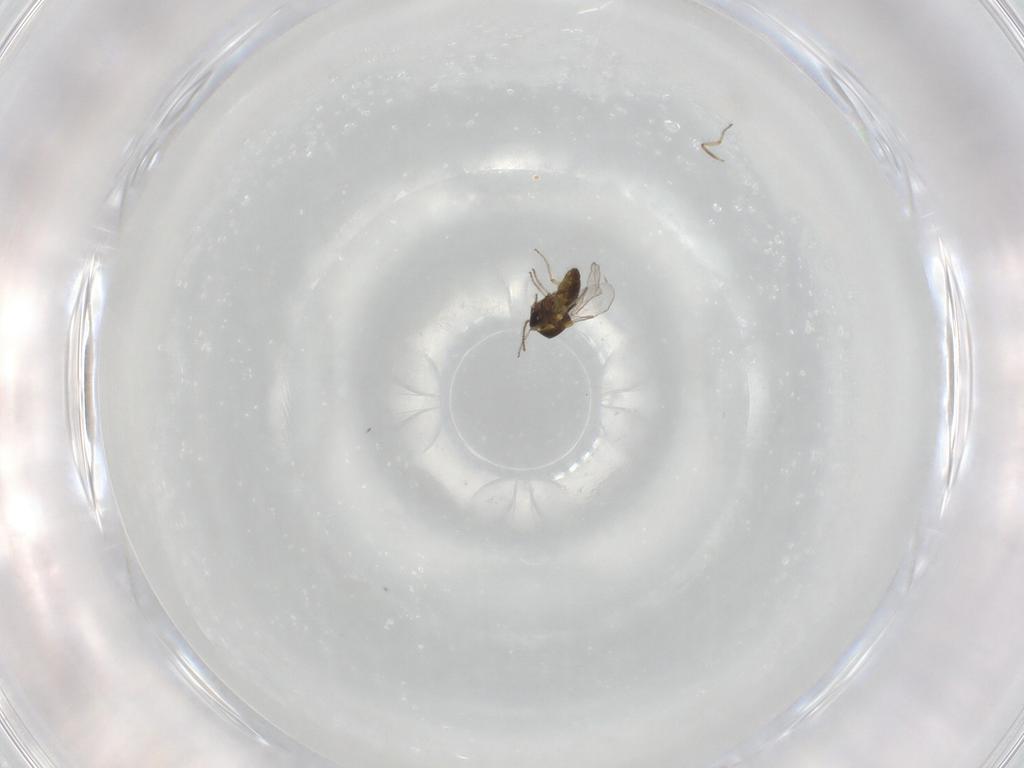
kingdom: Animalia
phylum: Arthropoda
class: Insecta
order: Diptera
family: Ceratopogonidae
